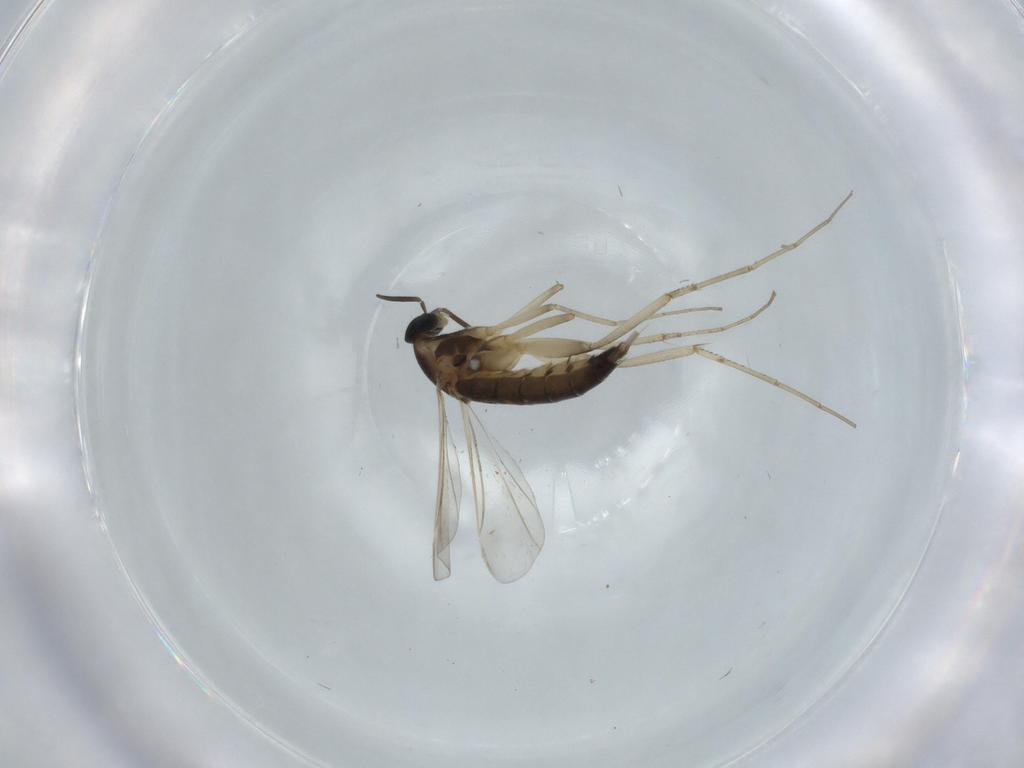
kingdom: Animalia
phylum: Arthropoda
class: Insecta
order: Diptera
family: Cecidomyiidae
